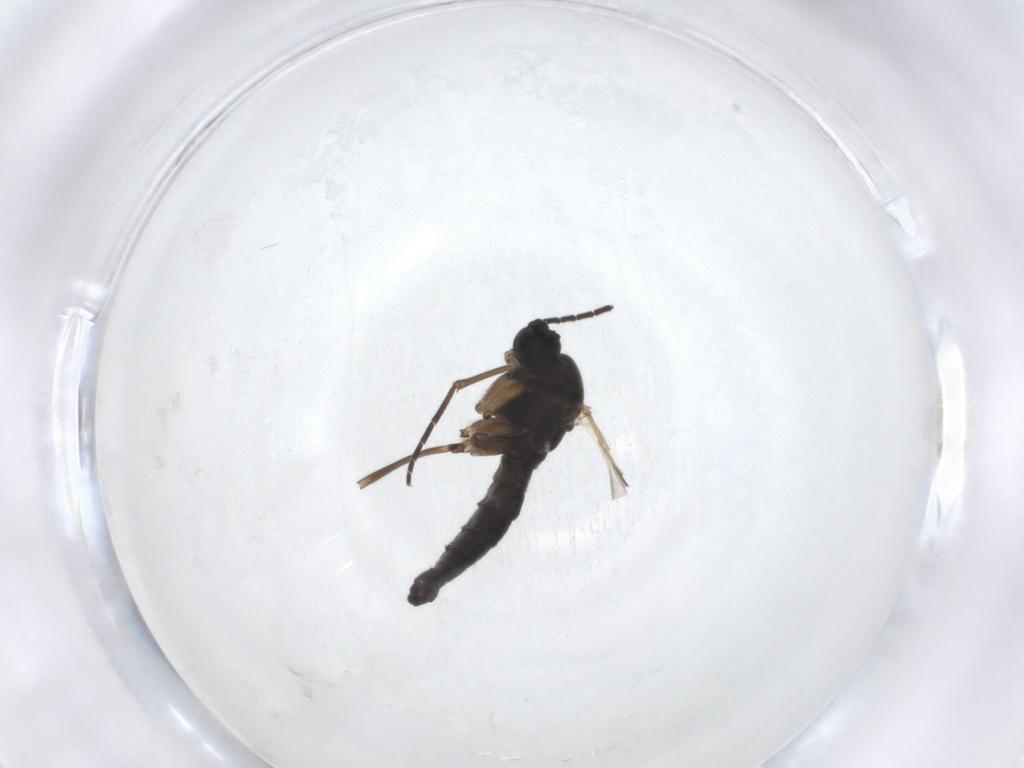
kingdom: Animalia
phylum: Arthropoda
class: Insecta
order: Diptera
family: Sciaridae
